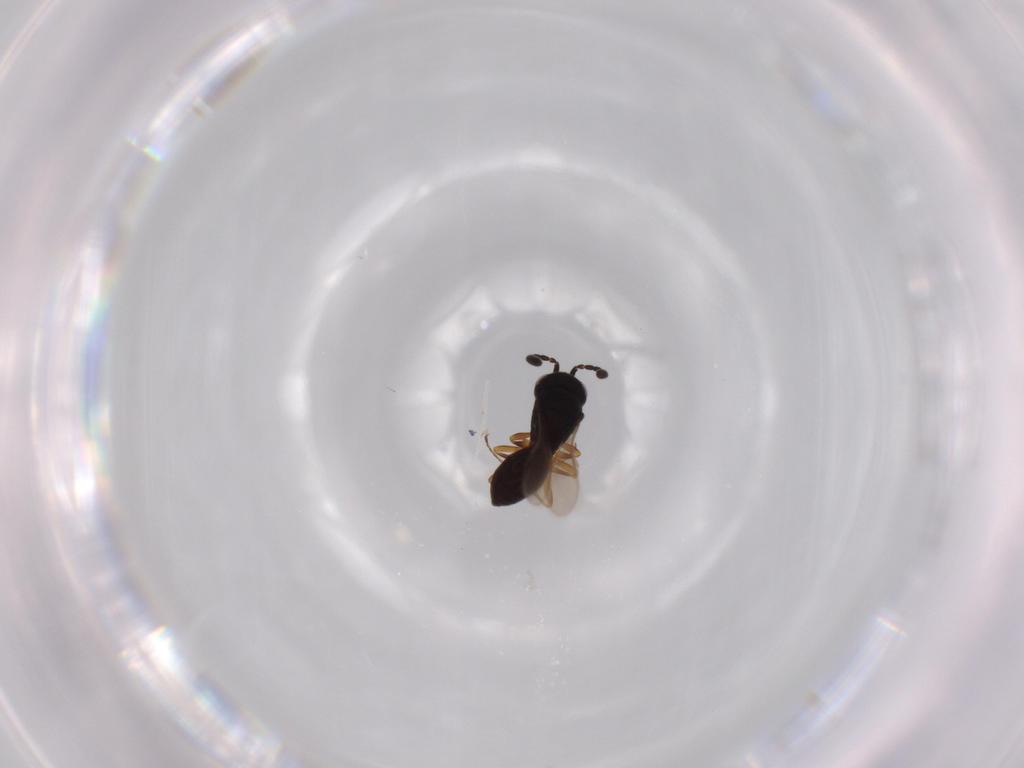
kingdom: Animalia
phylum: Arthropoda
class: Insecta
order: Hymenoptera
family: Scelionidae
